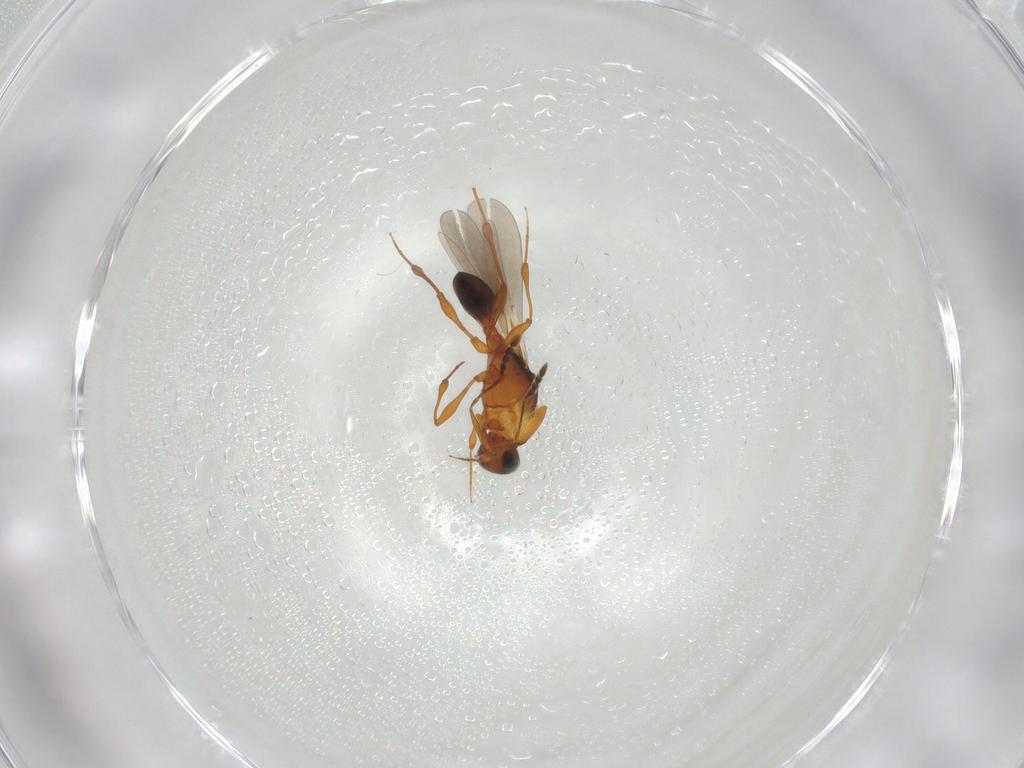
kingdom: Animalia
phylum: Arthropoda
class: Insecta
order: Hymenoptera
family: Platygastridae
